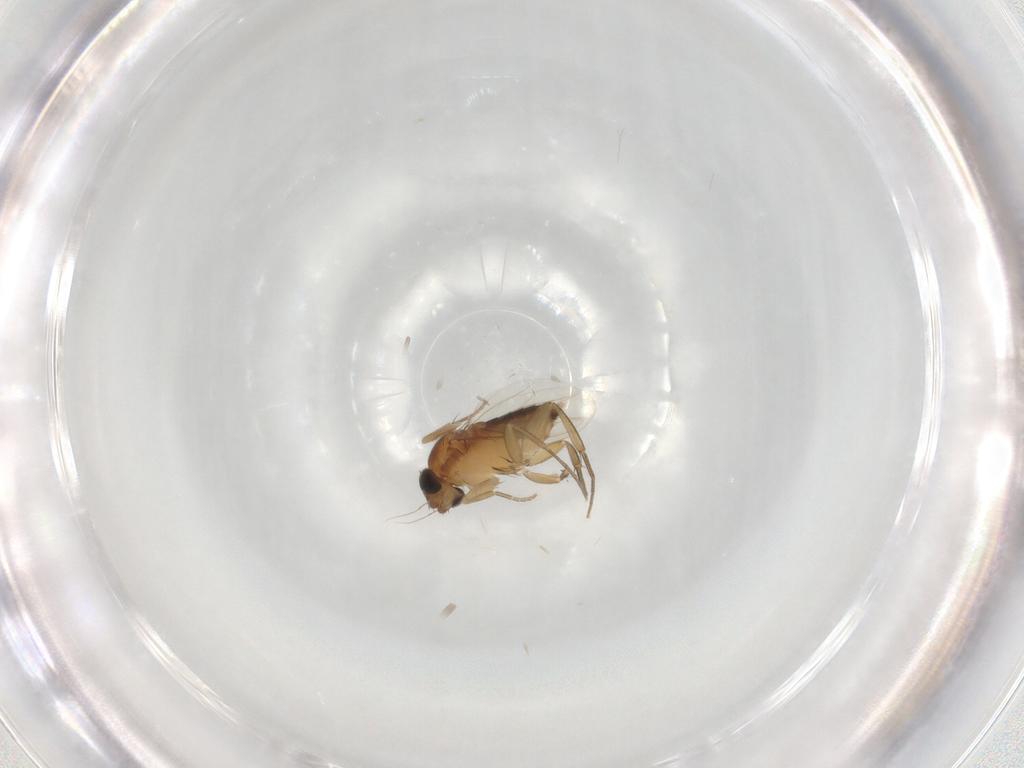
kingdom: Animalia
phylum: Arthropoda
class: Insecta
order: Diptera
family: Phoridae
